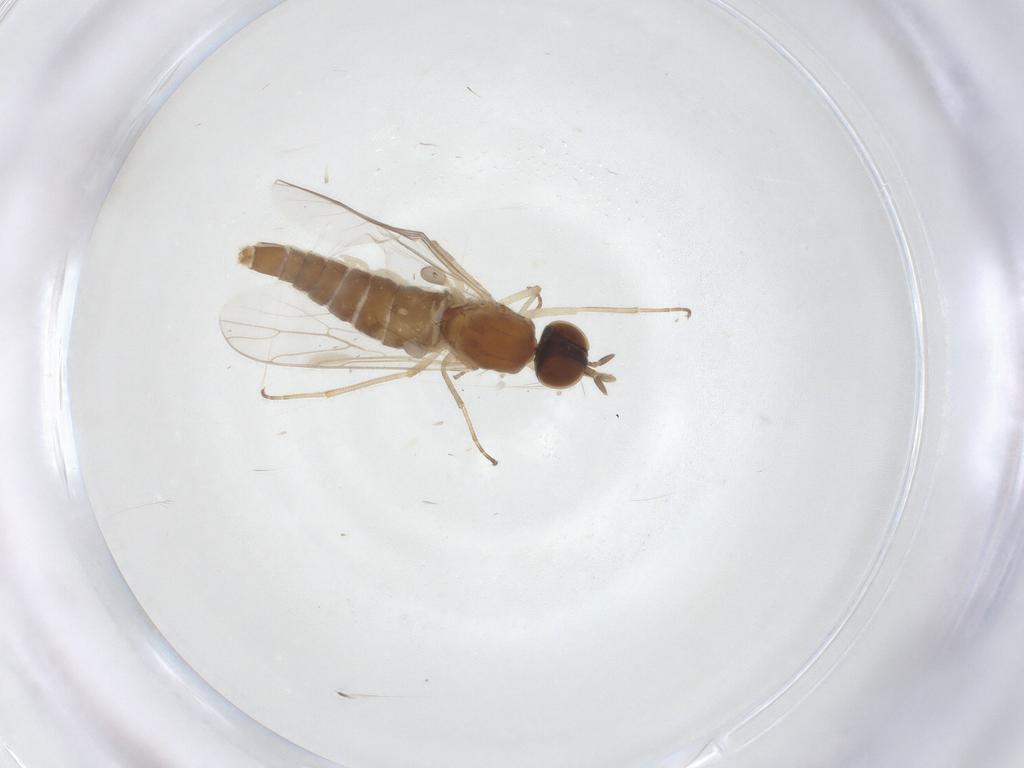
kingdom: Animalia
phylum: Arthropoda
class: Insecta
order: Diptera
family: Scenopinidae
